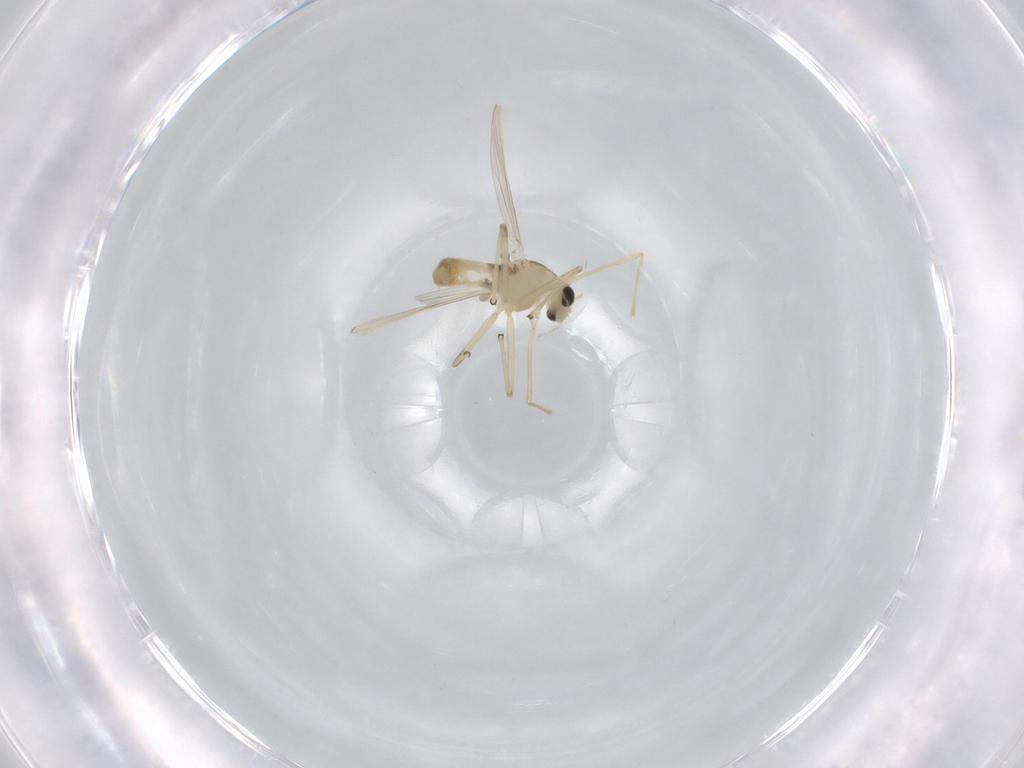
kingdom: Animalia
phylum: Arthropoda
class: Insecta
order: Diptera
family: Chironomidae
